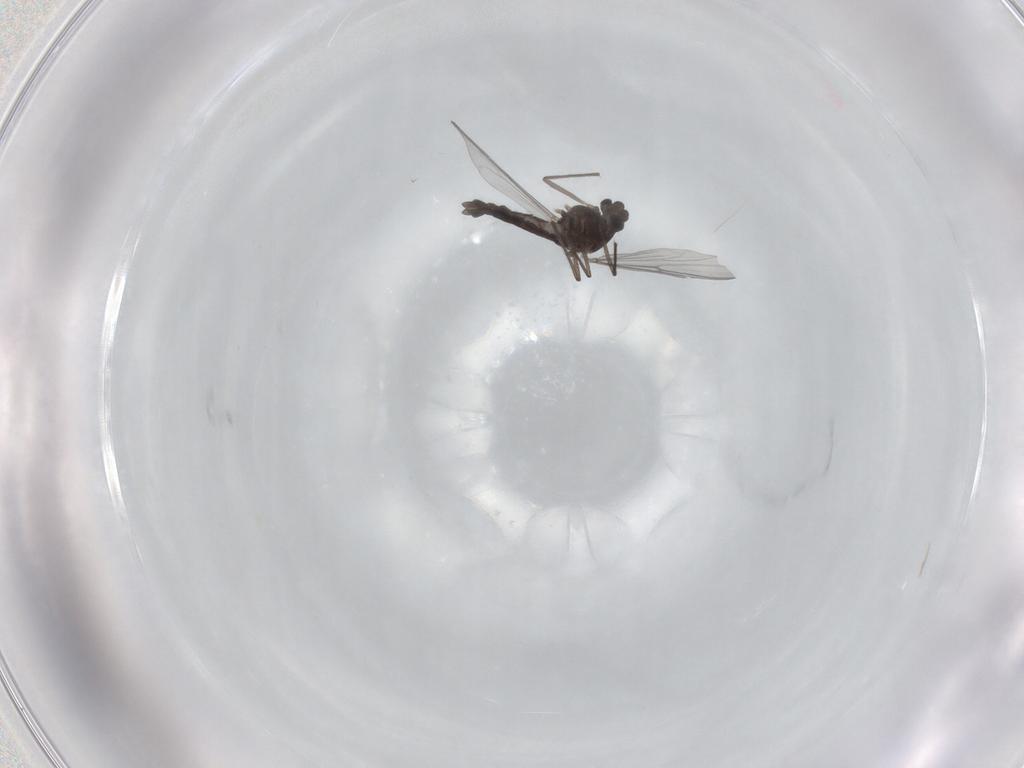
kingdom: Animalia
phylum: Arthropoda
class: Insecta
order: Diptera
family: Chironomidae
